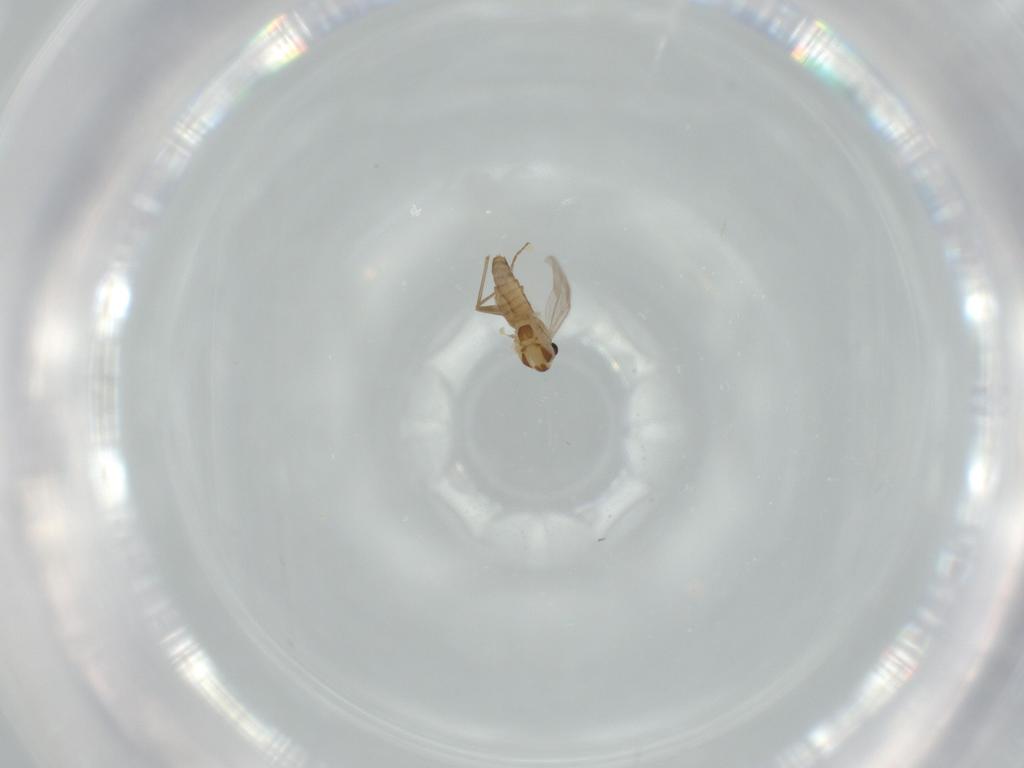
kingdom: Animalia
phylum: Arthropoda
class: Insecta
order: Diptera
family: Chironomidae
